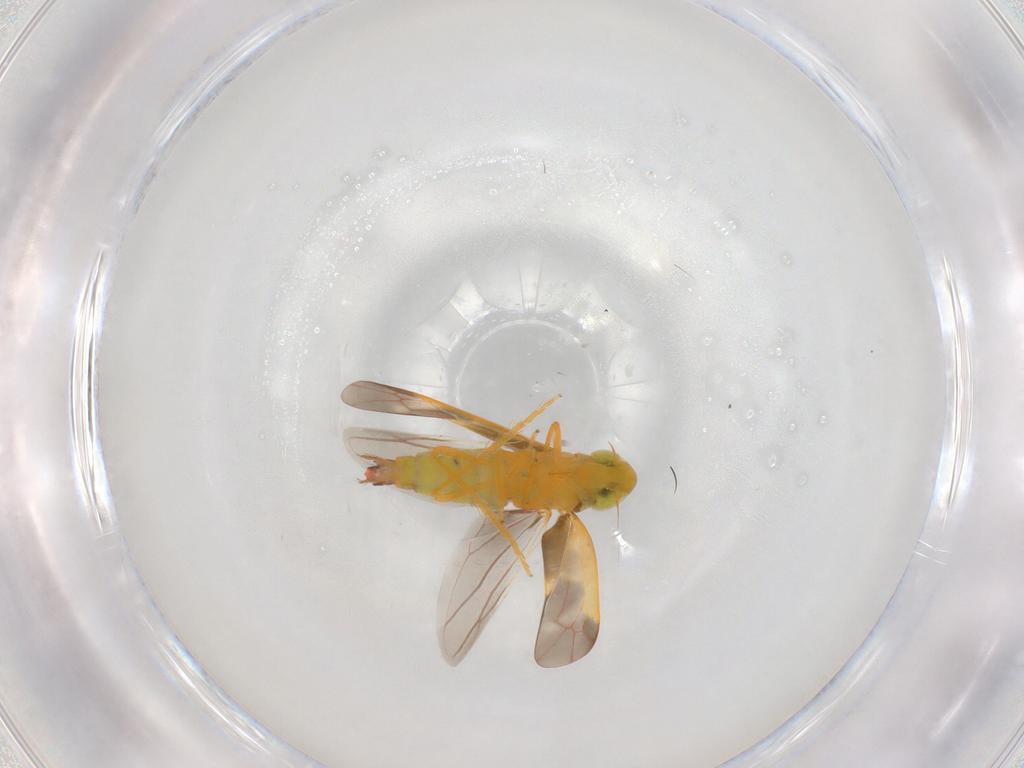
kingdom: Animalia
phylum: Arthropoda
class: Insecta
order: Hemiptera
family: Cicadellidae
